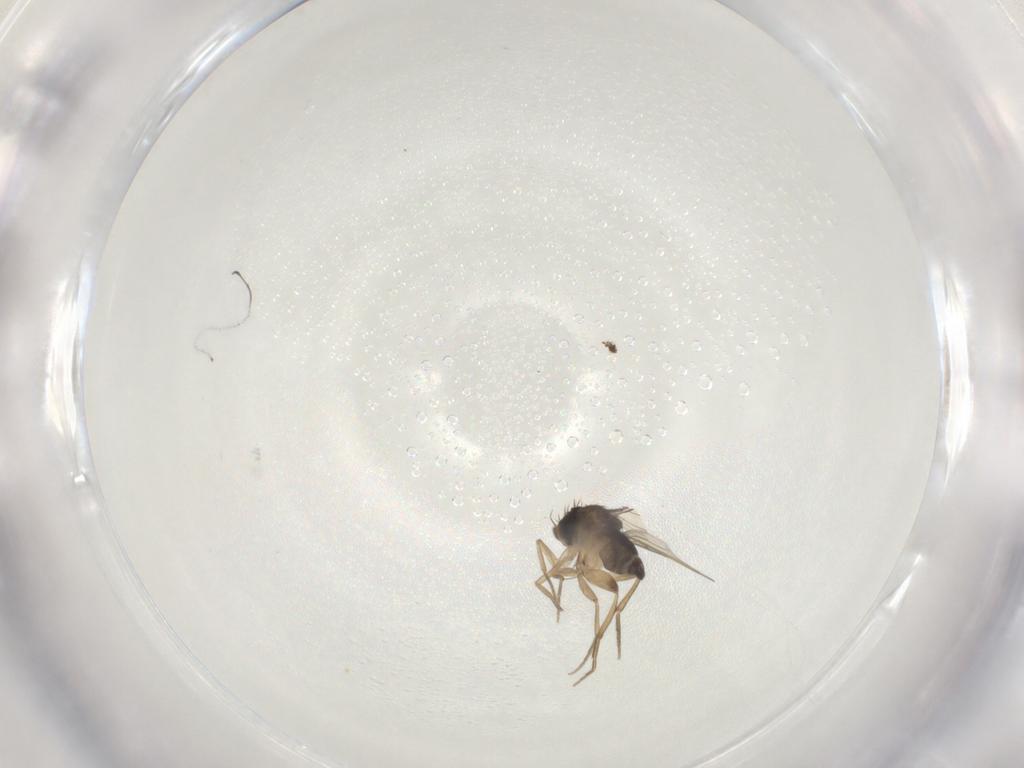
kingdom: Animalia
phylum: Arthropoda
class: Insecta
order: Diptera
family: Phoridae
